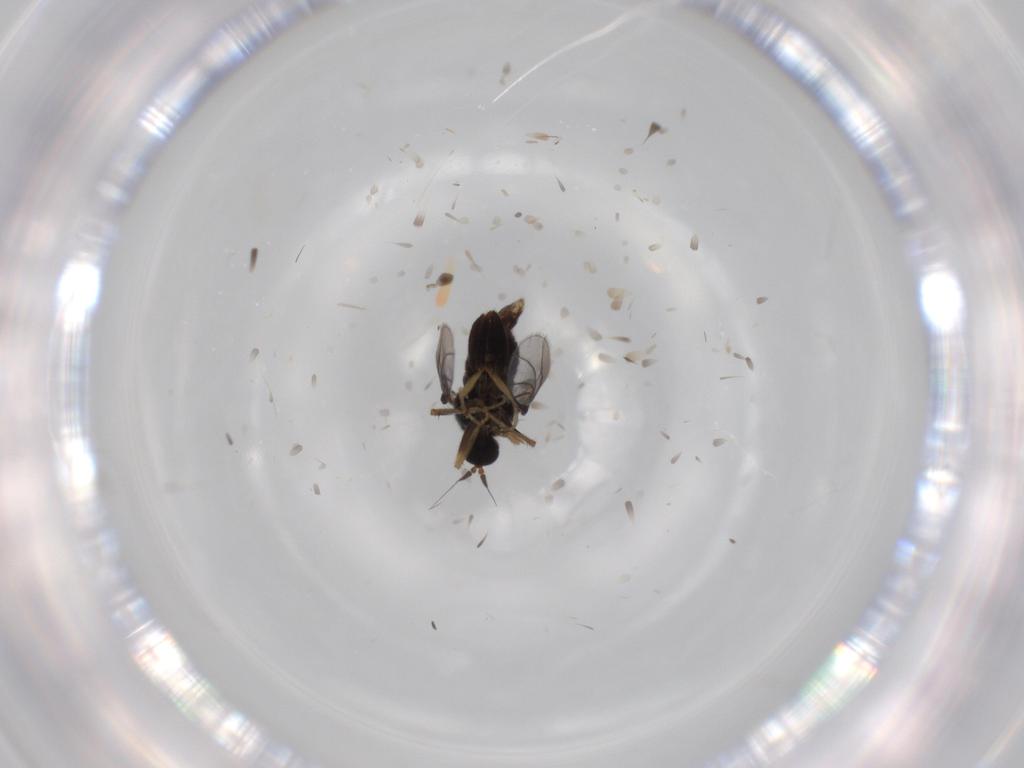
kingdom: Animalia
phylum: Arthropoda
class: Insecta
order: Diptera
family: Hybotidae
